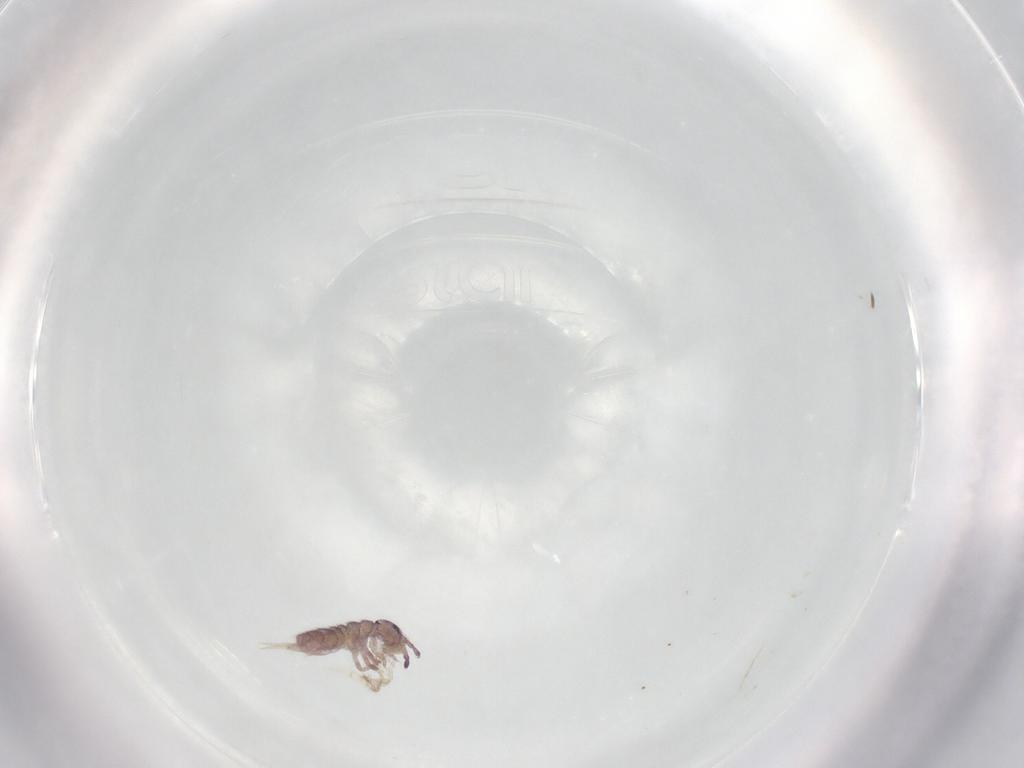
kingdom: Animalia
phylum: Arthropoda
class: Collembola
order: Entomobryomorpha
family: Isotomidae
